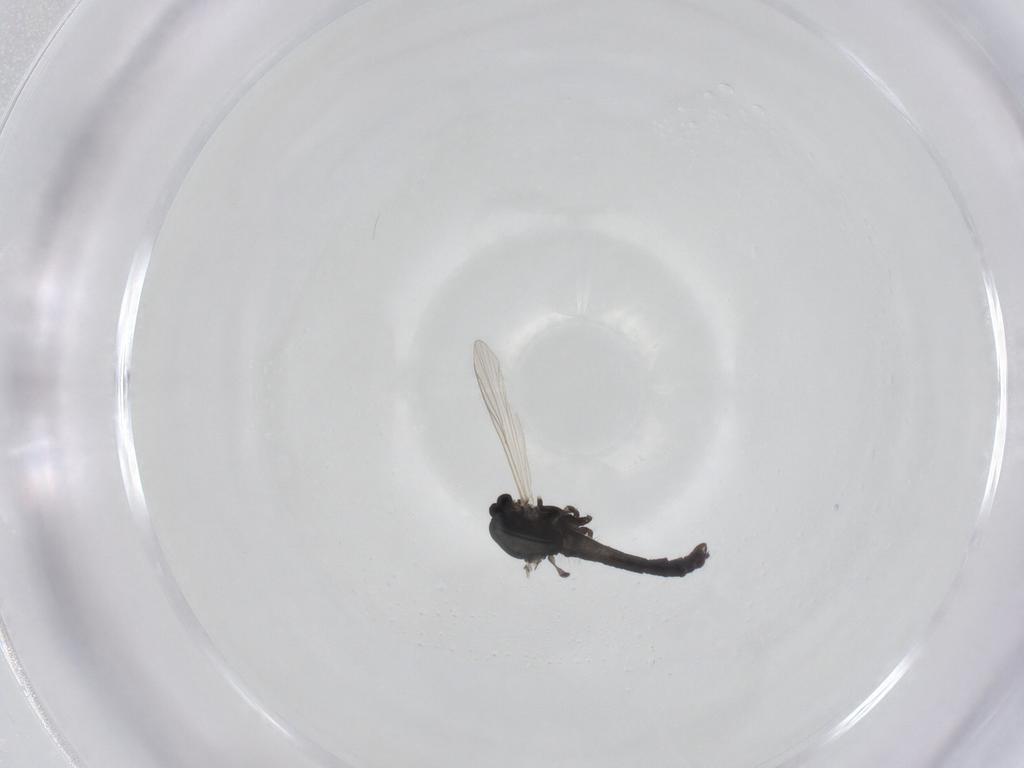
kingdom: Animalia
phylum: Arthropoda
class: Insecta
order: Diptera
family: Chironomidae
